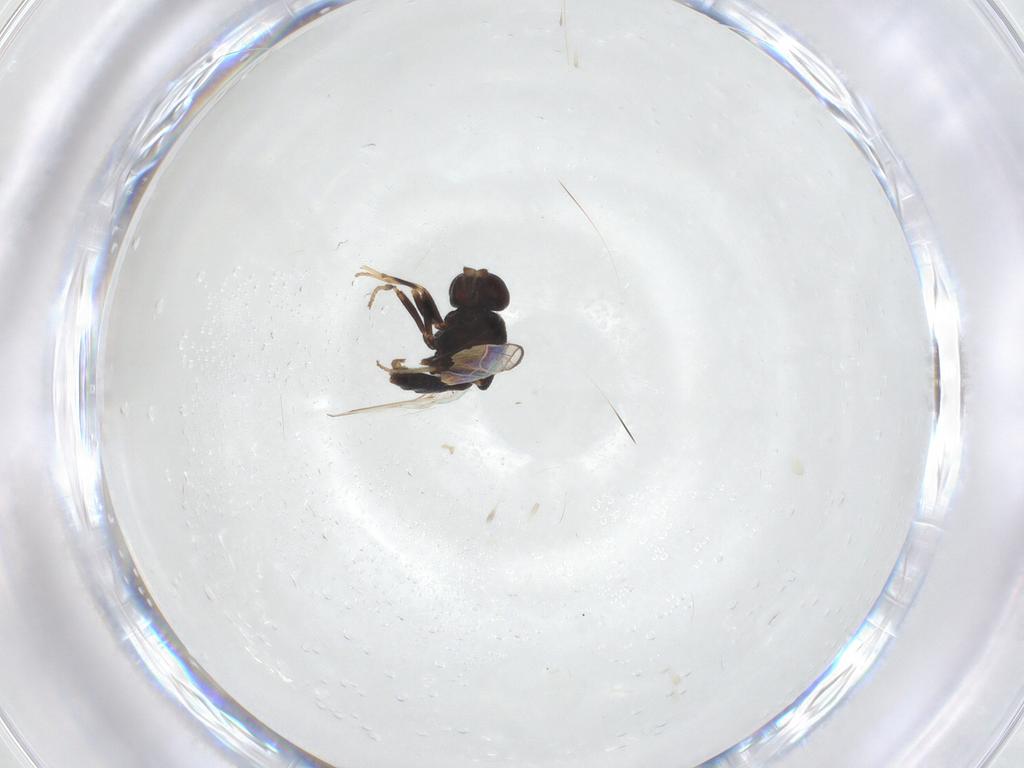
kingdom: Animalia
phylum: Arthropoda
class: Insecta
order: Diptera
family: Chloropidae
